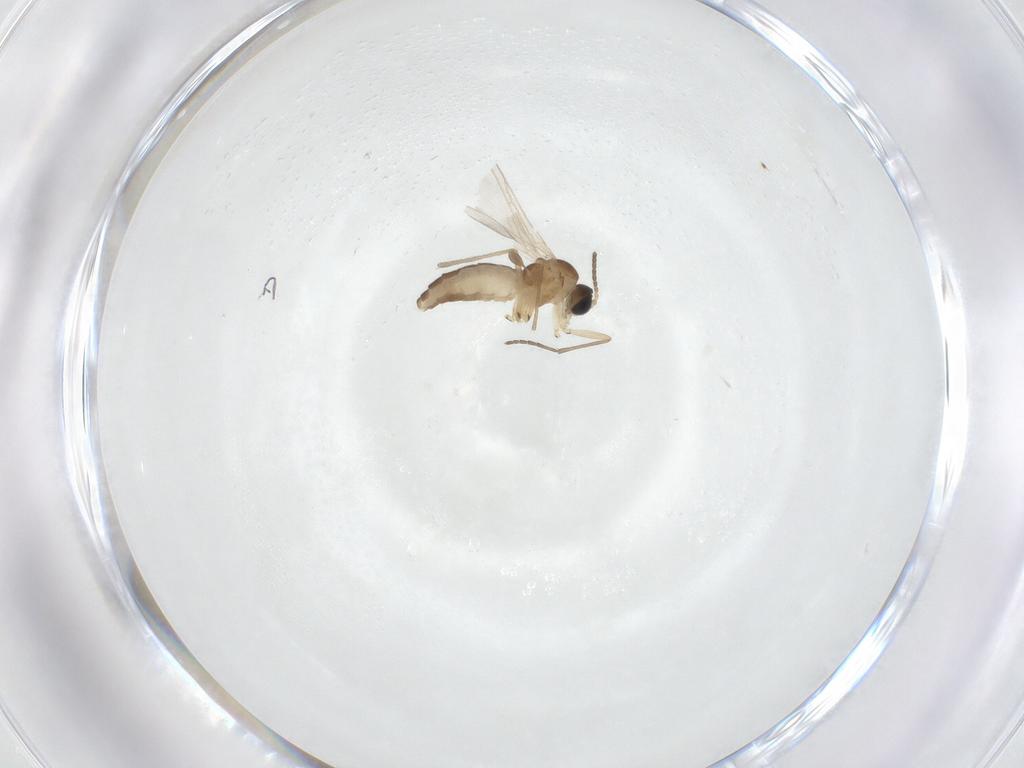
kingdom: Animalia
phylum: Arthropoda
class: Insecta
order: Diptera
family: Sciaridae
